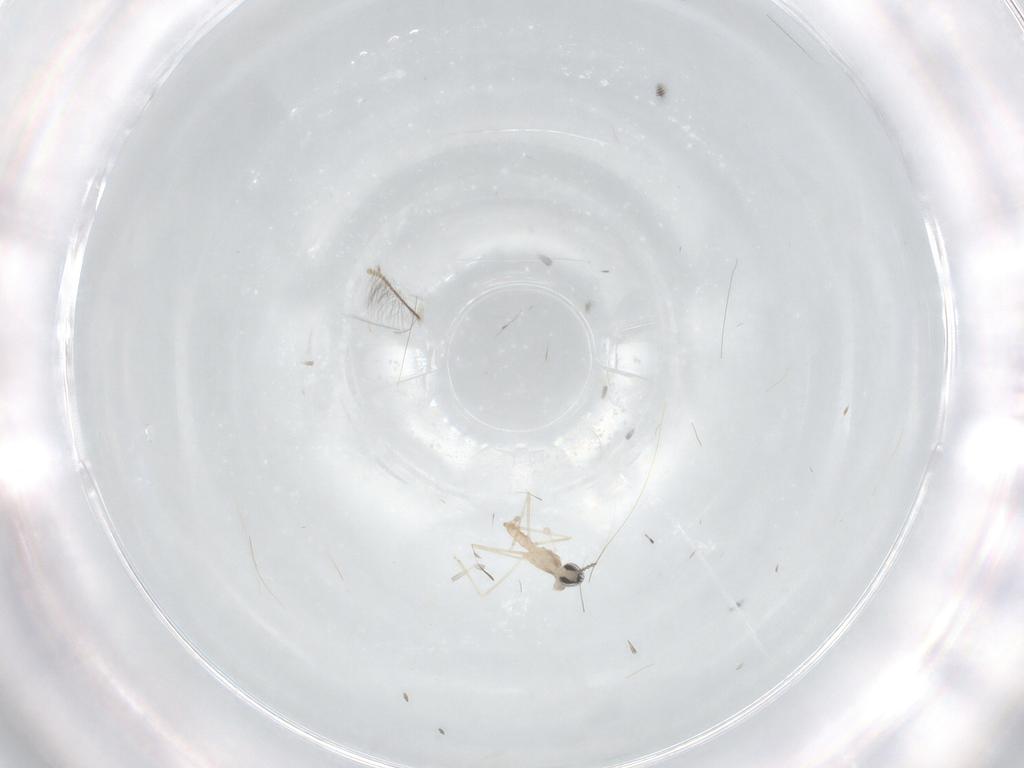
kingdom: Animalia
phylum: Arthropoda
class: Insecta
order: Diptera
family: Cecidomyiidae
